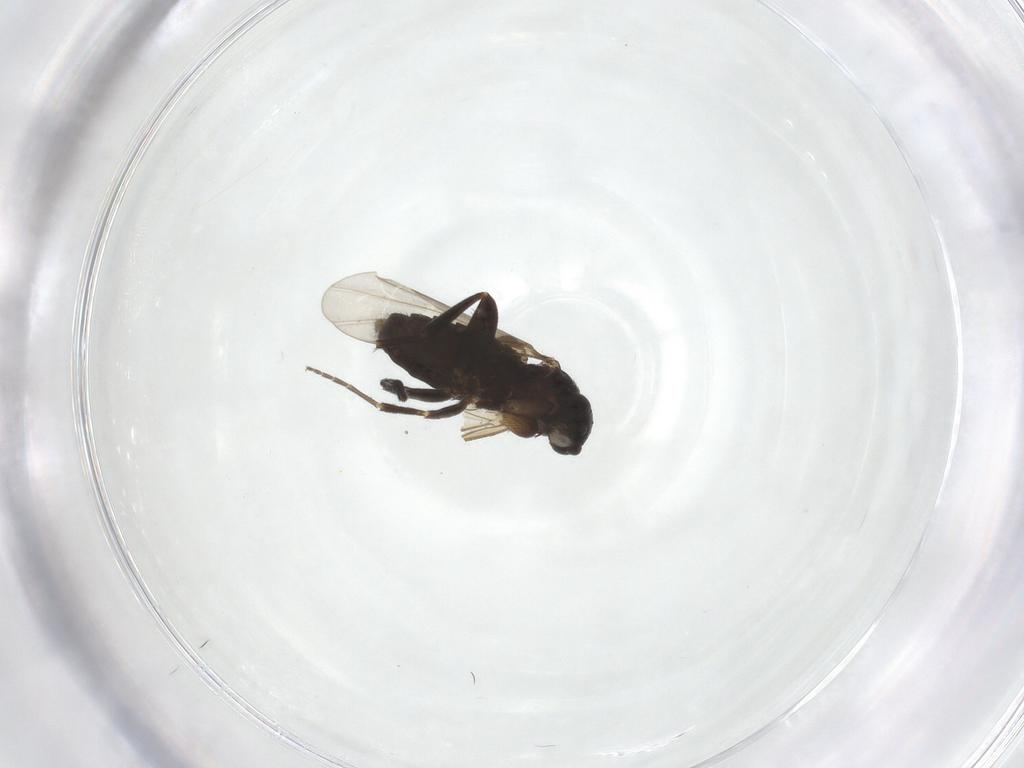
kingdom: Animalia
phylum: Arthropoda
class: Insecta
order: Diptera
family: Phoridae
